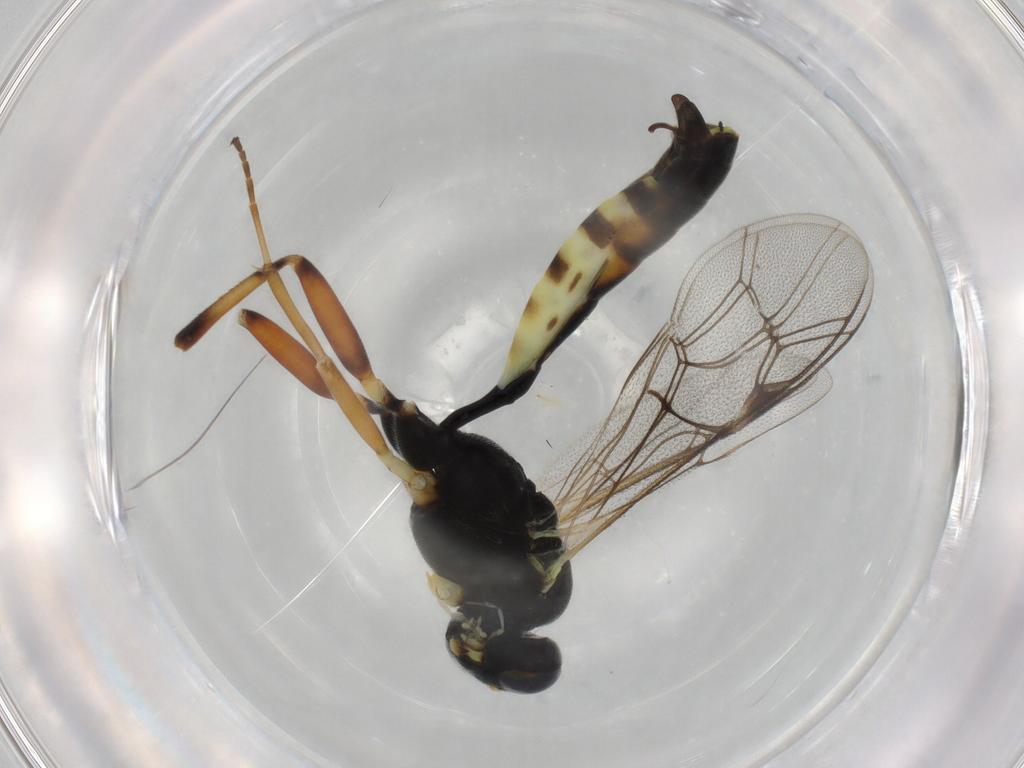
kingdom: Animalia
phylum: Arthropoda
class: Insecta
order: Hymenoptera
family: Ichneumonidae
